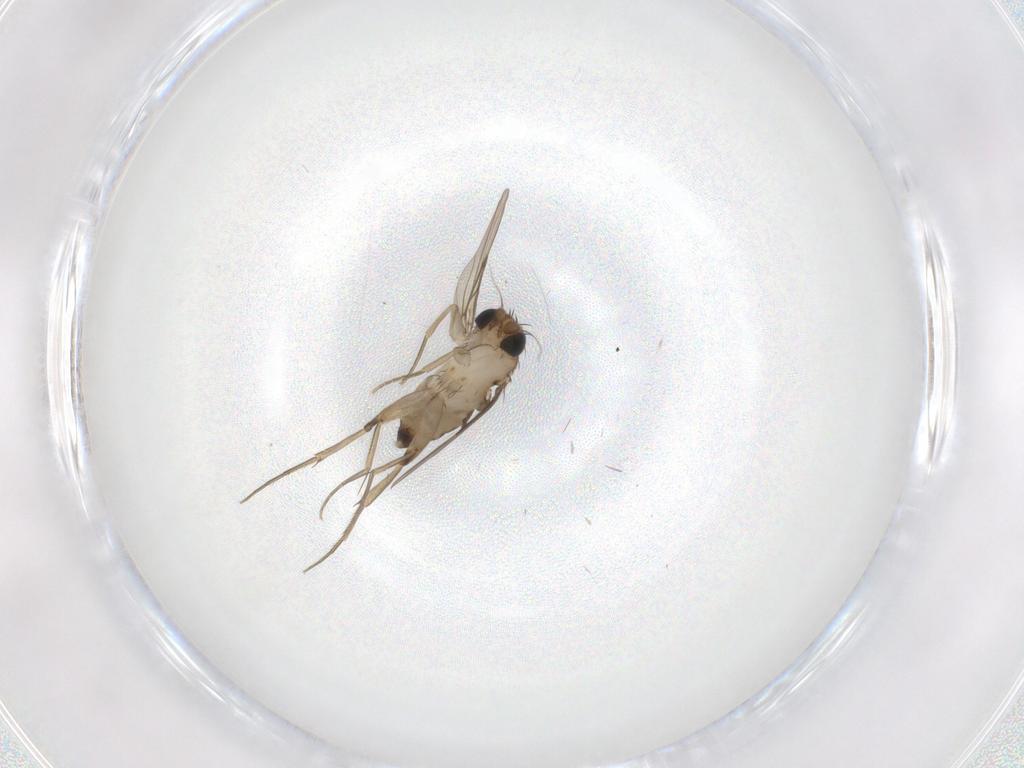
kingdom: Animalia
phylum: Arthropoda
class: Insecta
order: Diptera
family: Phoridae
